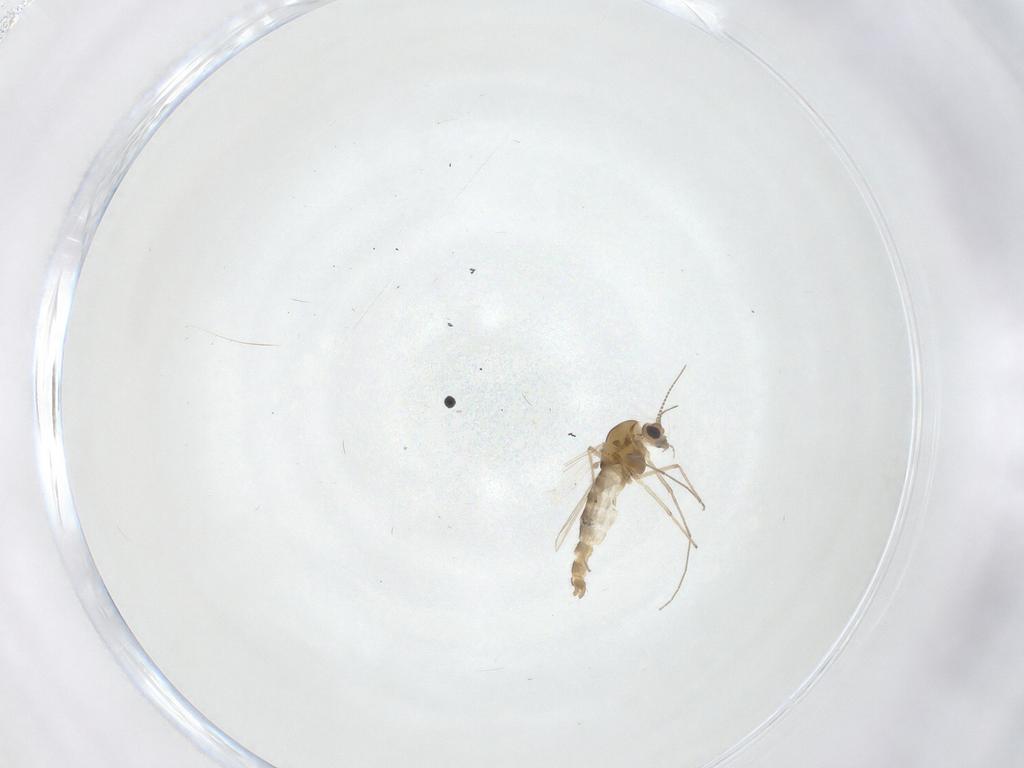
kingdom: Animalia
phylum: Arthropoda
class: Insecta
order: Diptera
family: Chironomidae
